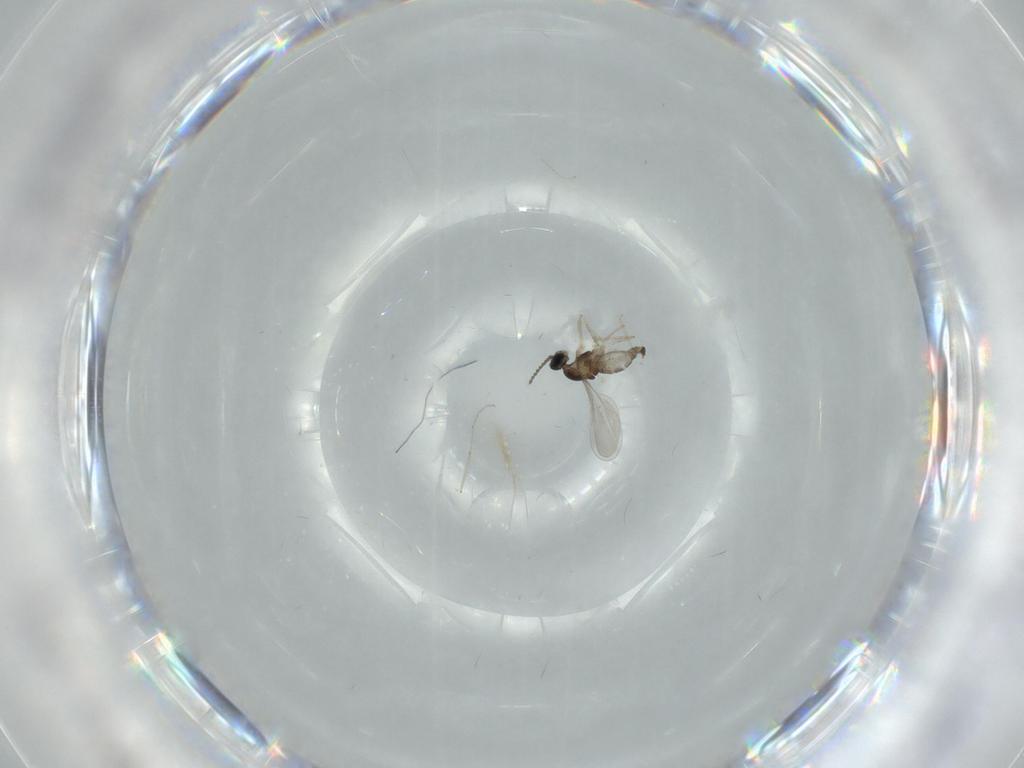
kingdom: Animalia
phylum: Arthropoda
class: Insecta
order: Diptera
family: Cecidomyiidae
